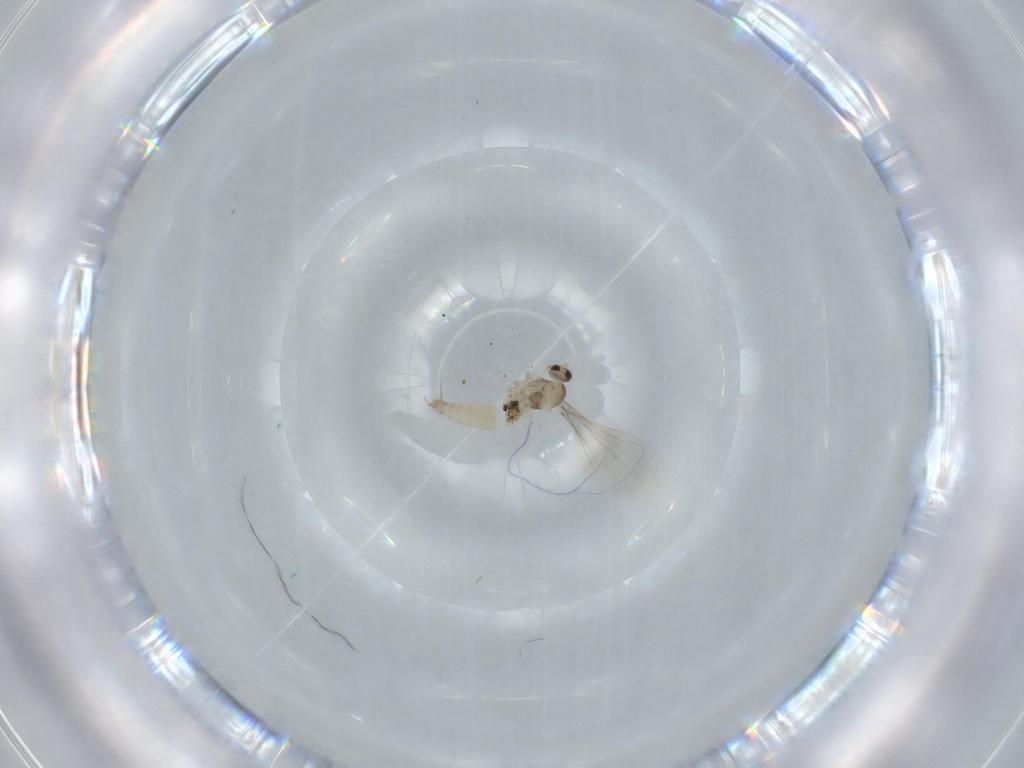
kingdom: Animalia
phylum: Arthropoda
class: Insecta
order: Diptera
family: Cecidomyiidae
